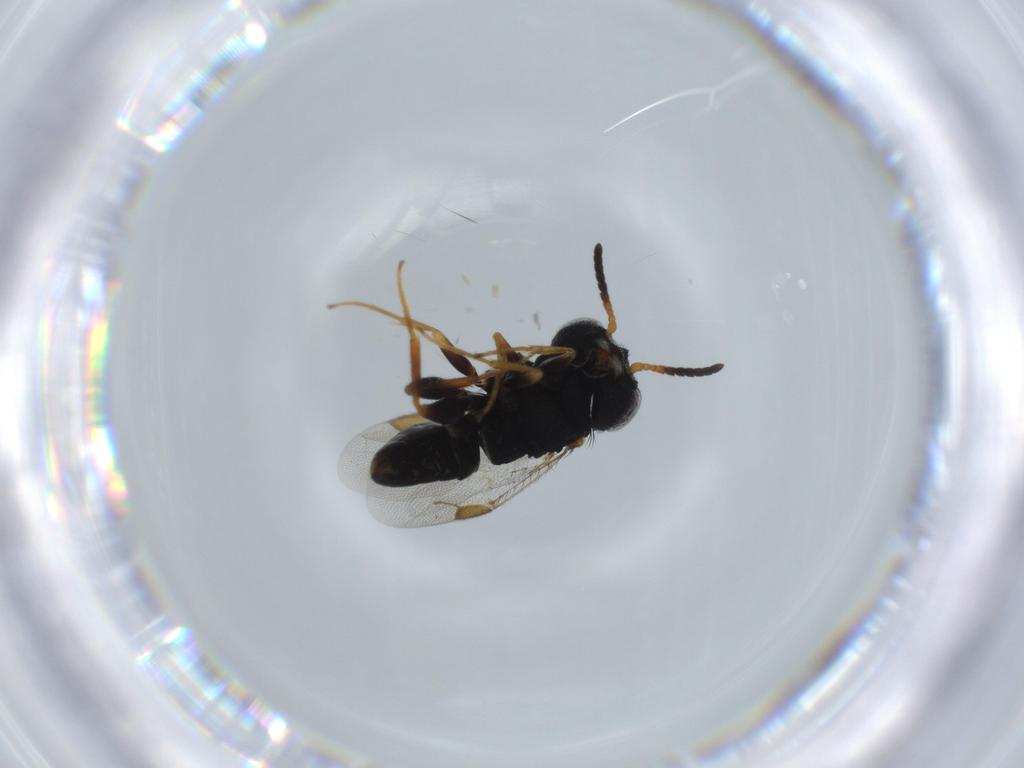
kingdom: Animalia
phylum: Arthropoda
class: Insecta
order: Hymenoptera
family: Dryinidae
